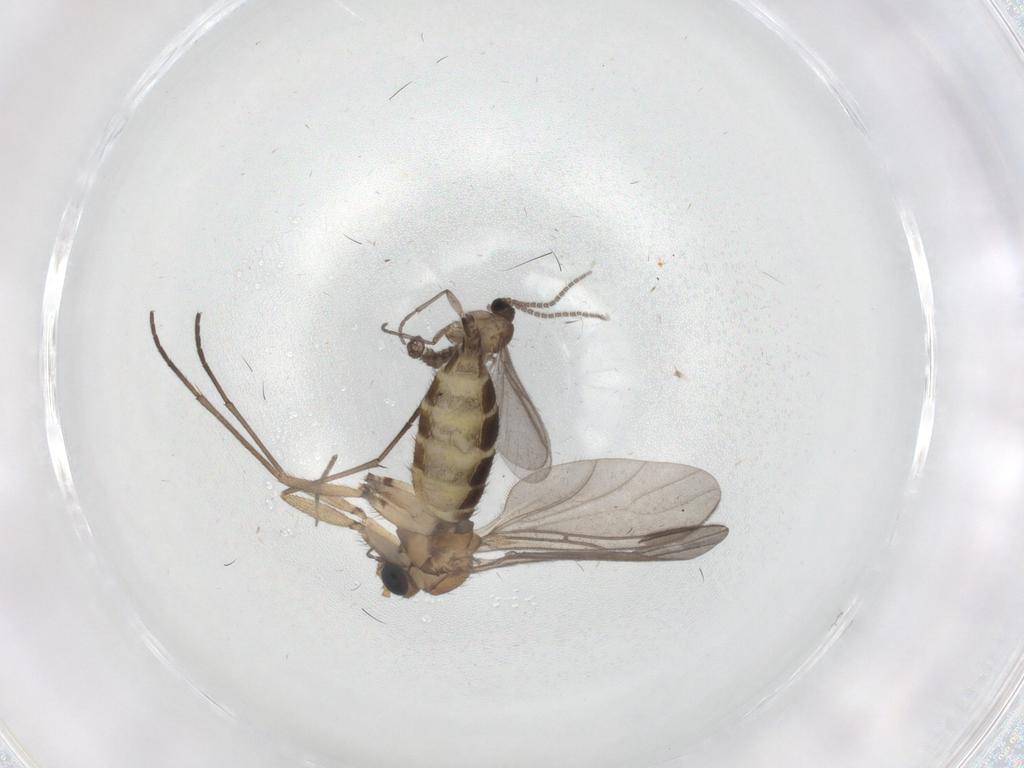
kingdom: Animalia
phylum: Arthropoda
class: Insecta
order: Diptera
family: Sciaridae
